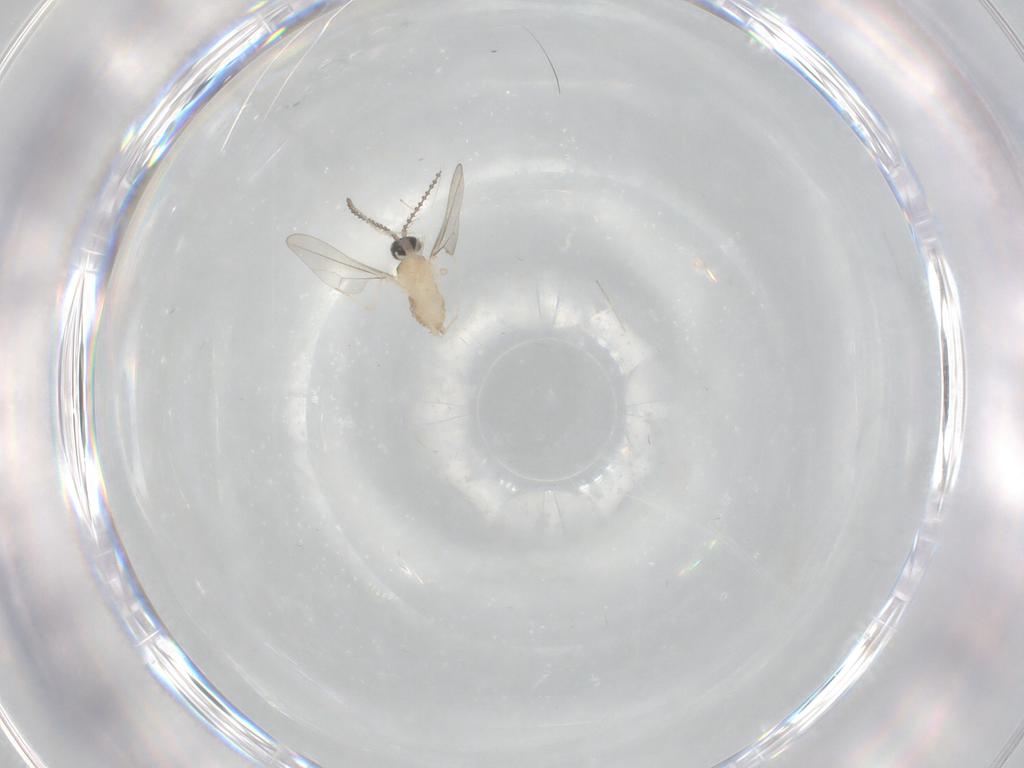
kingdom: Animalia
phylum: Arthropoda
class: Insecta
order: Diptera
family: Cecidomyiidae
